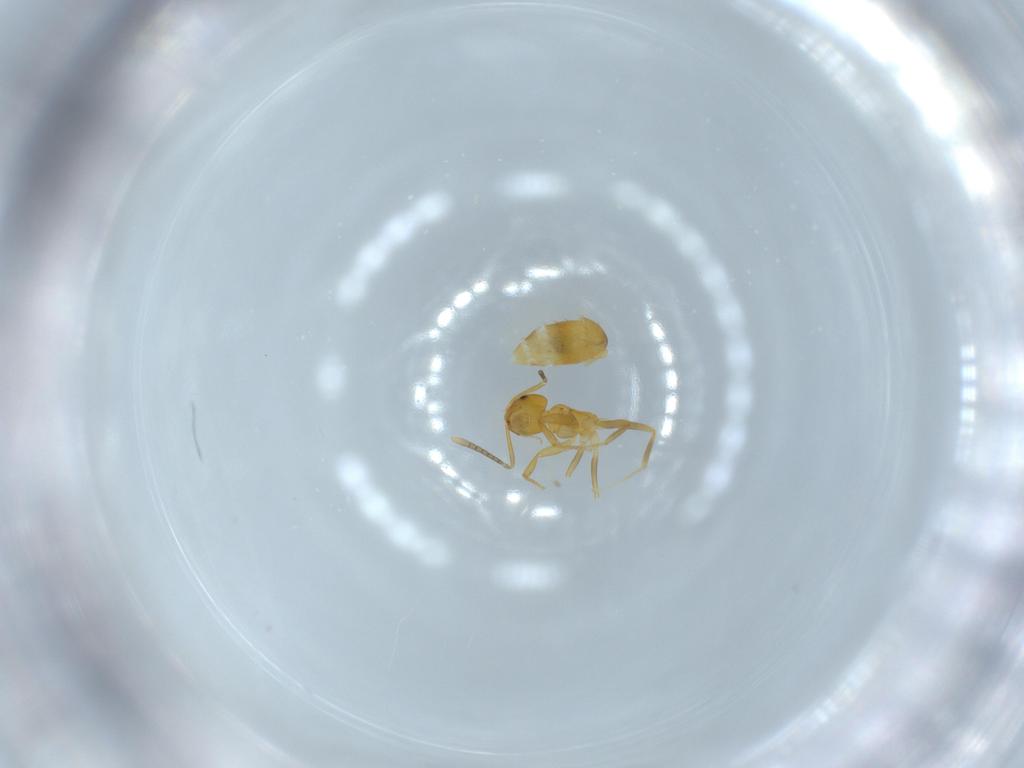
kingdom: Animalia
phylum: Arthropoda
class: Insecta
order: Hymenoptera
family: Formicidae
